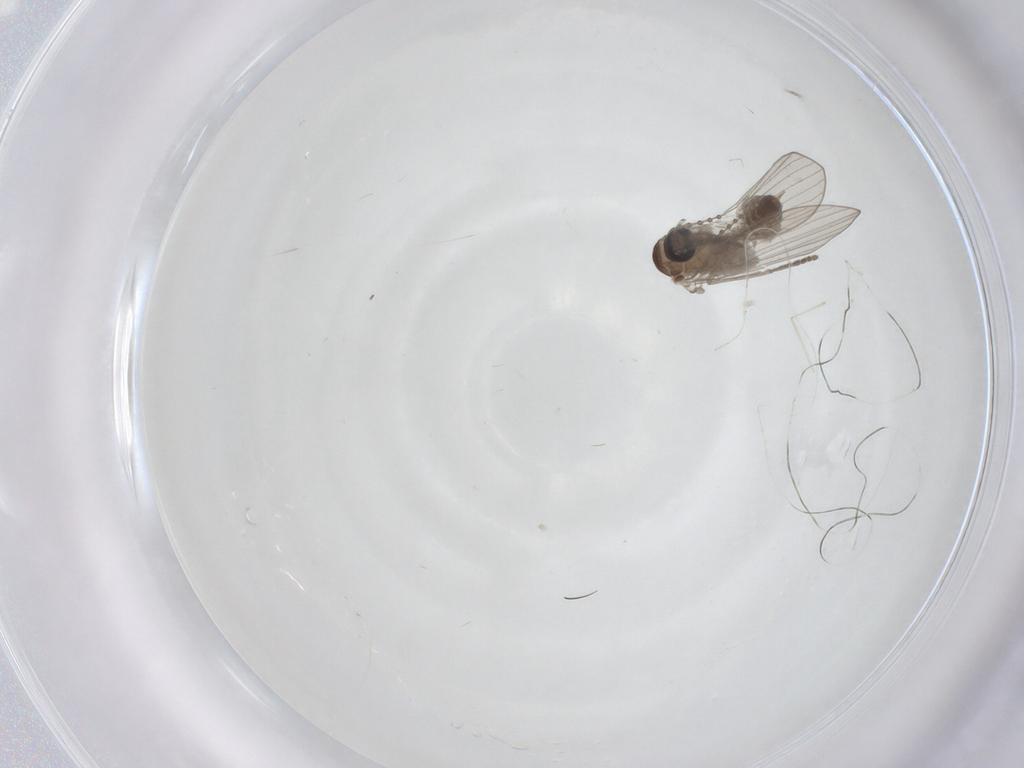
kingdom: Animalia
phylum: Arthropoda
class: Insecta
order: Diptera
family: Psychodidae
